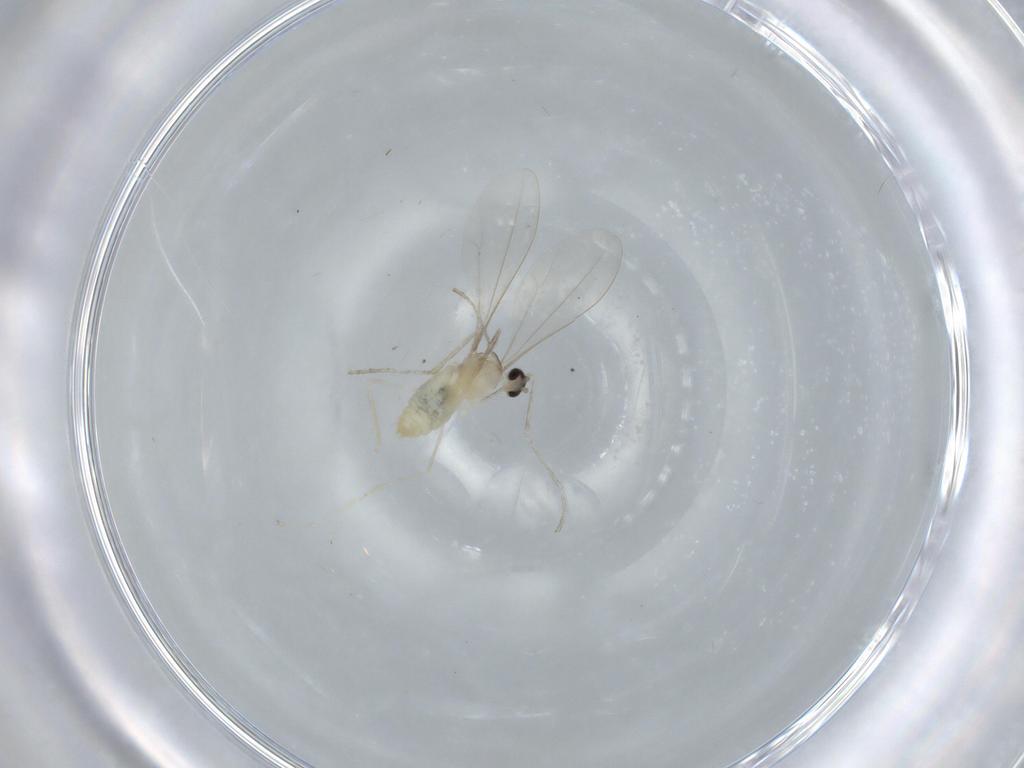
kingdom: Animalia
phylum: Arthropoda
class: Insecta
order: Diptera
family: Cecidomyiidae
